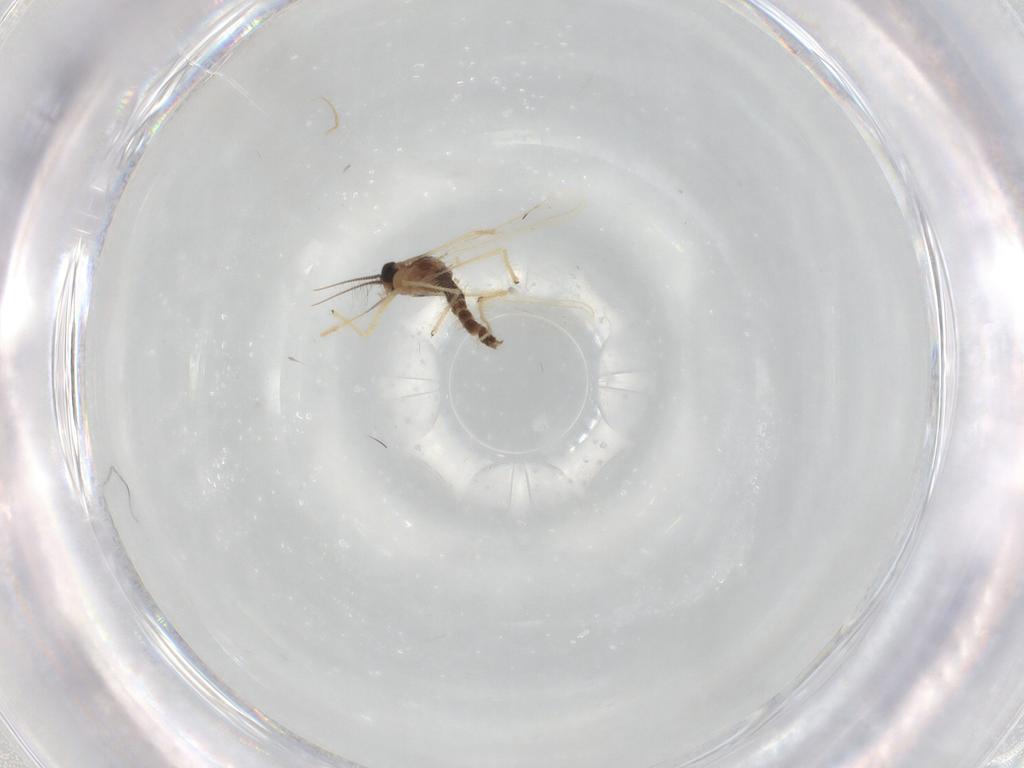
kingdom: Animalia
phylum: Arthropoda
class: Insecta
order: Diptera
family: Chironomidae
